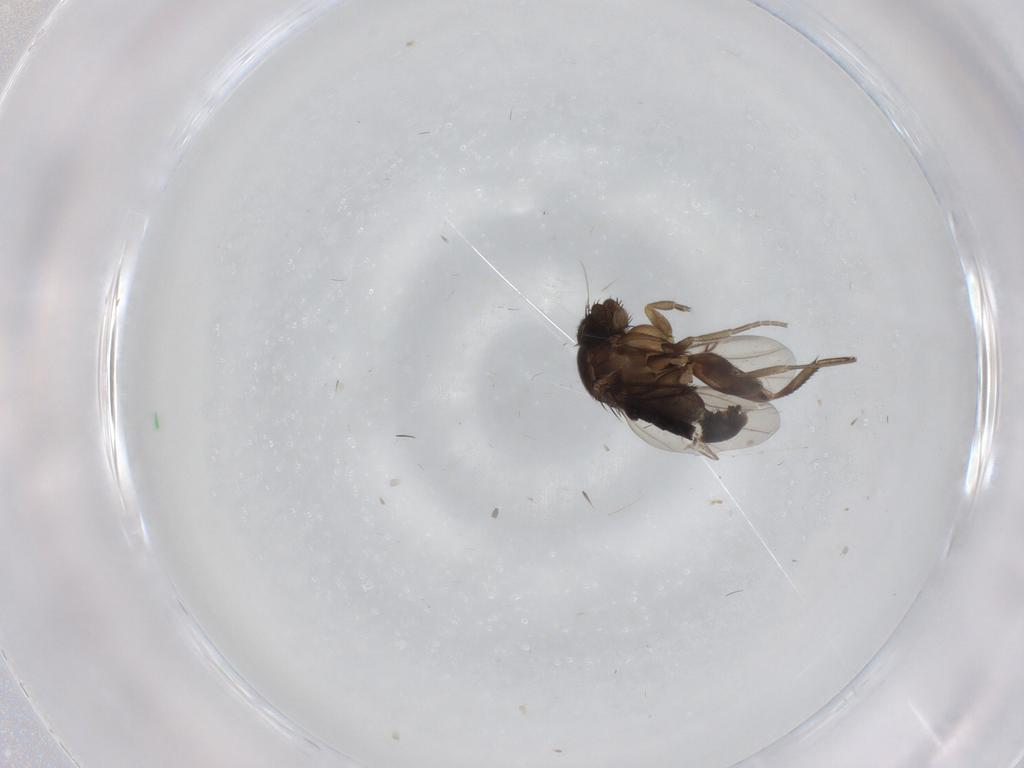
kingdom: Animalia
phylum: Arthropoda
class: Insecta
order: Diptera
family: Phoridae
